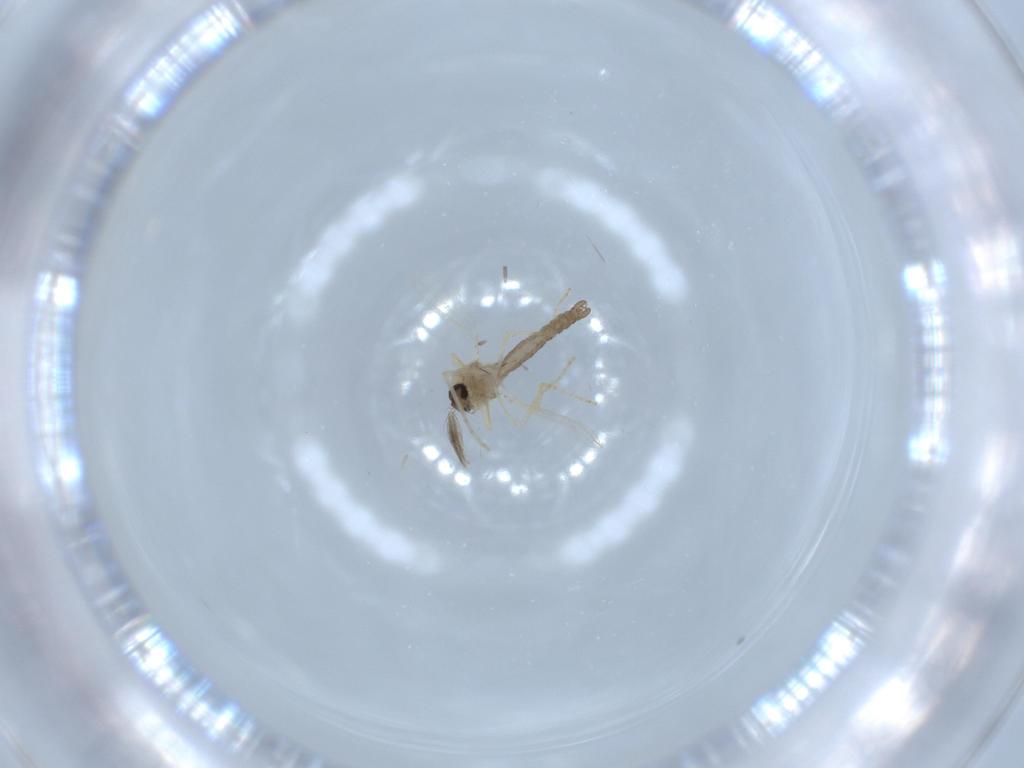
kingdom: Animalia
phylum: Arthropoda
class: Insecta
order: Diptera
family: Ceratopogonidae
